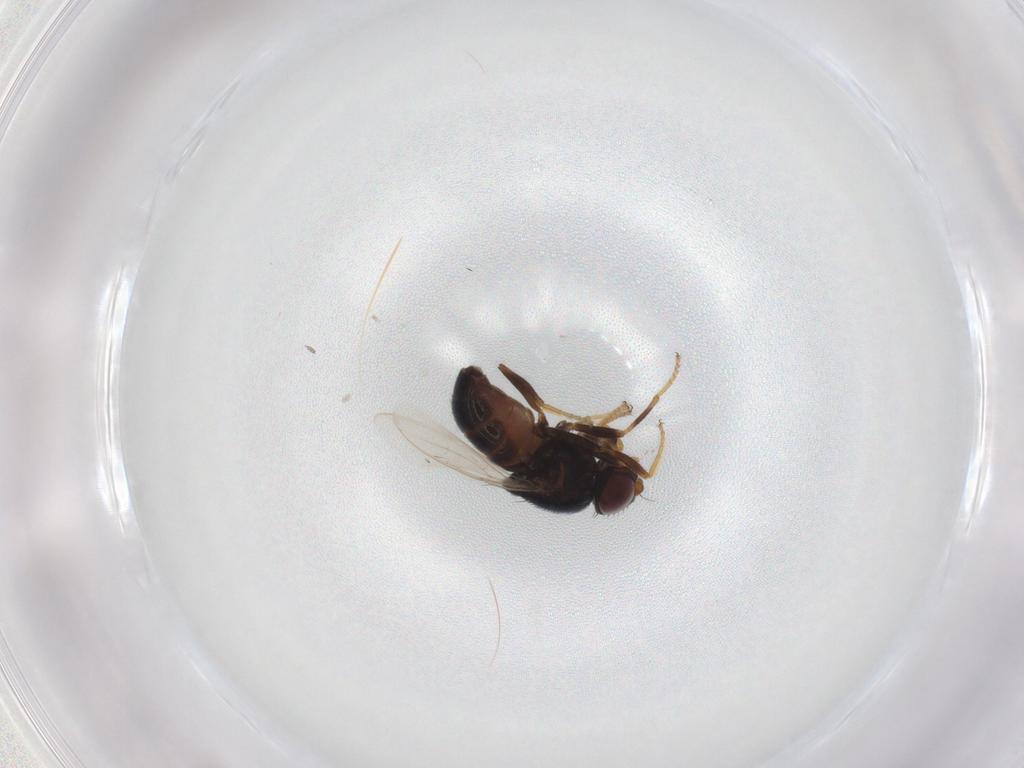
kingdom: Animalia
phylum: Arthropoda
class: Insecta
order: Diptera
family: Chloropidae
